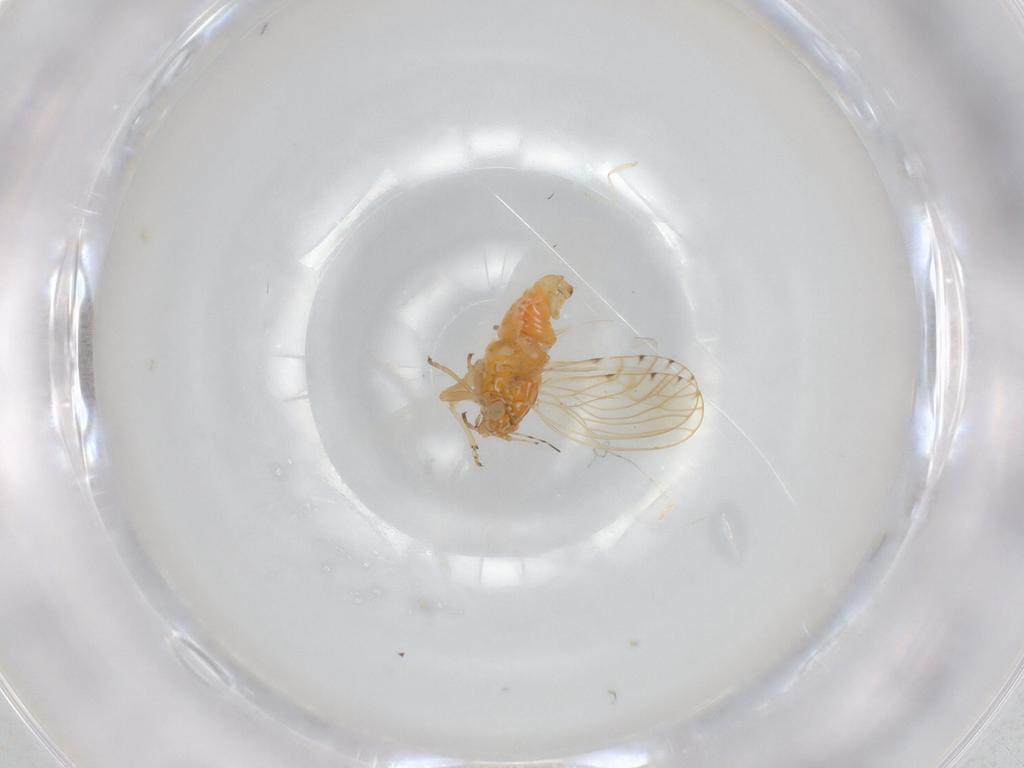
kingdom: Animalia
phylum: Arthropoda
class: Insecta
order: Hemiptera
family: Psylloidea_incertae_sedis
